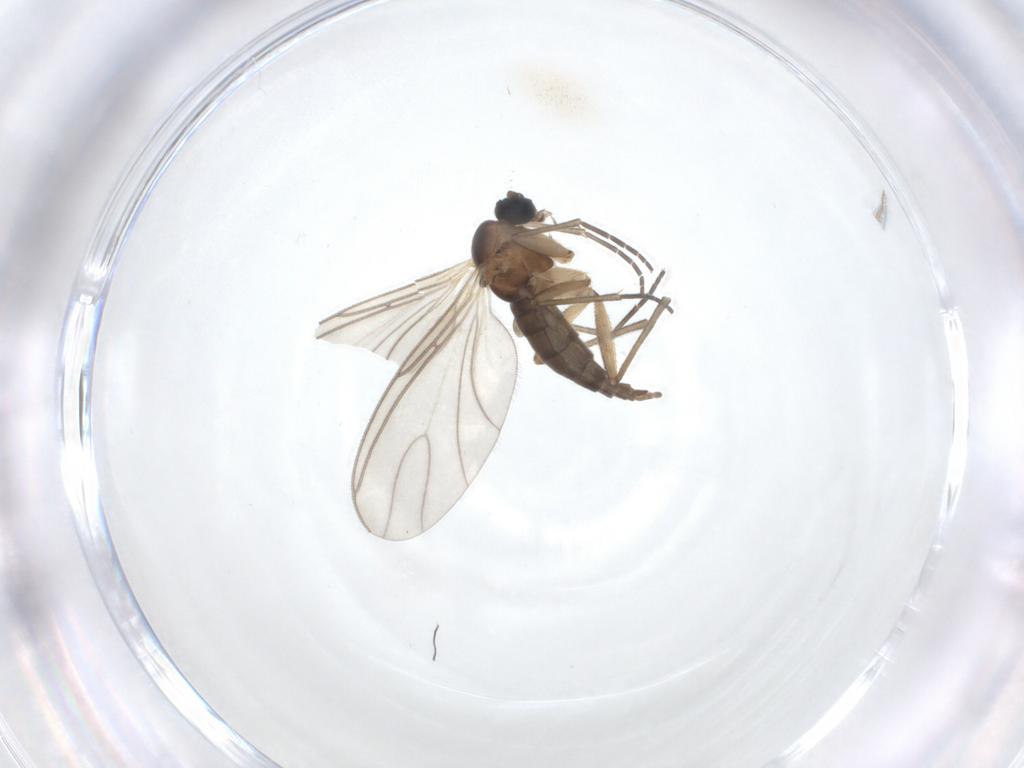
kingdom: Animalia
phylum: Arthropoda
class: Insecta
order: Diptera
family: Sciaridae
